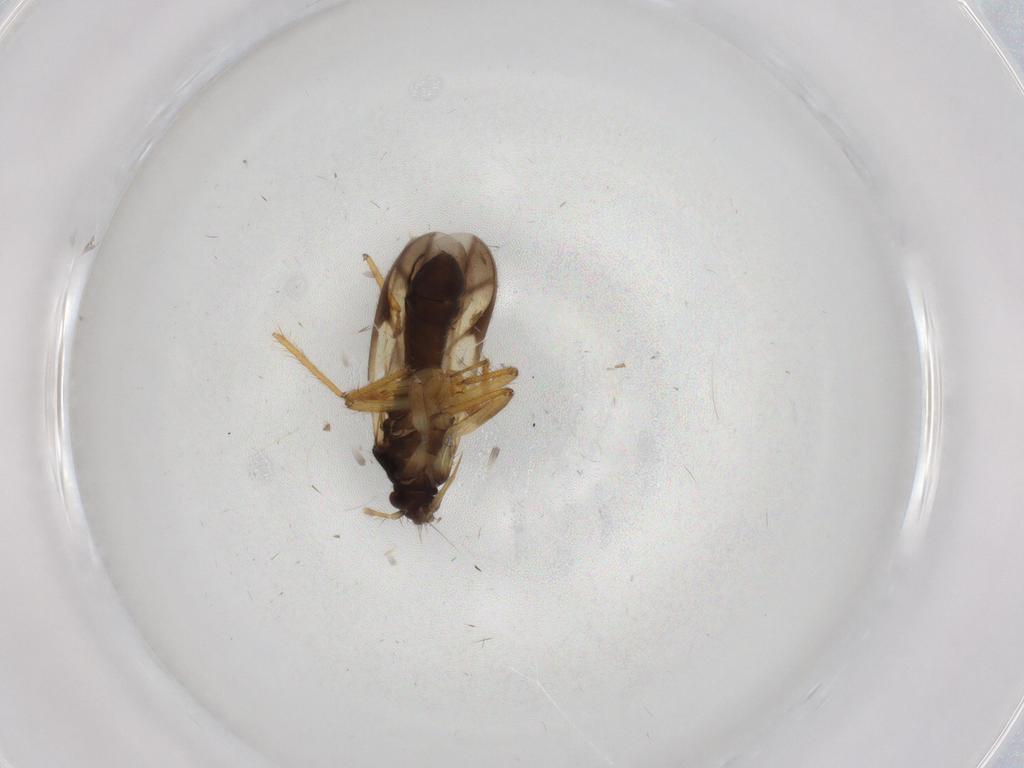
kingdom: Animalia
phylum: Arthropoda
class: Insecta
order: Hemiptera
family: Ceratocombidae
